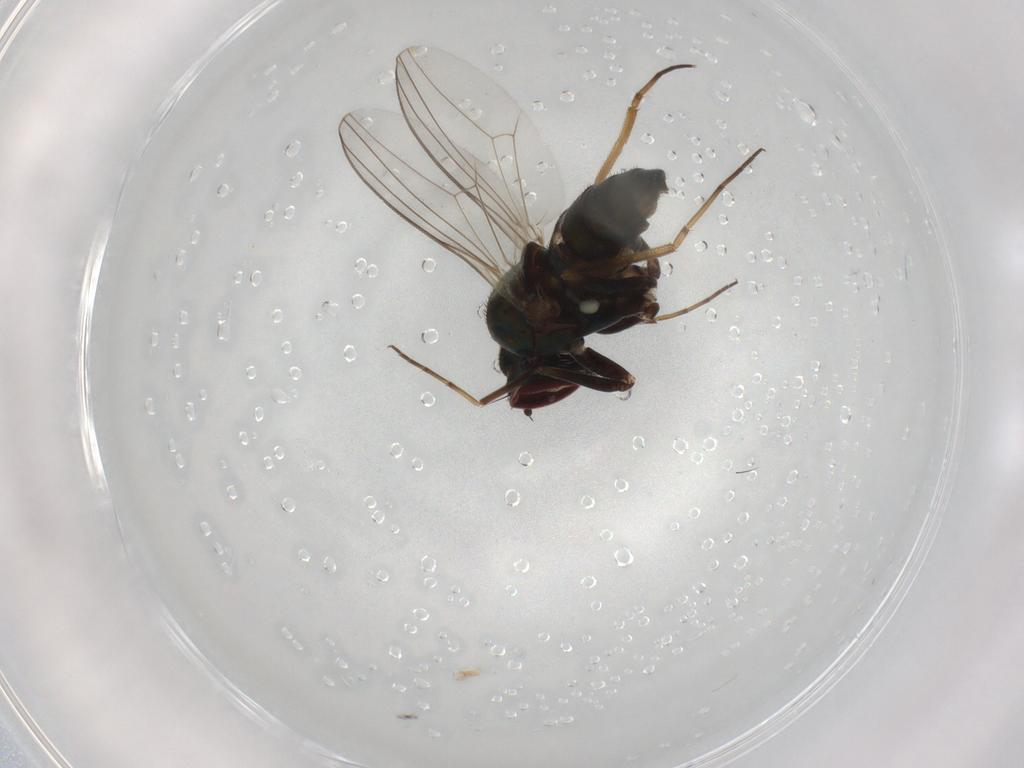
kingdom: Animalia
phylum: Arthropoda
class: Insecta
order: Diptera
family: Dolichopodidae
